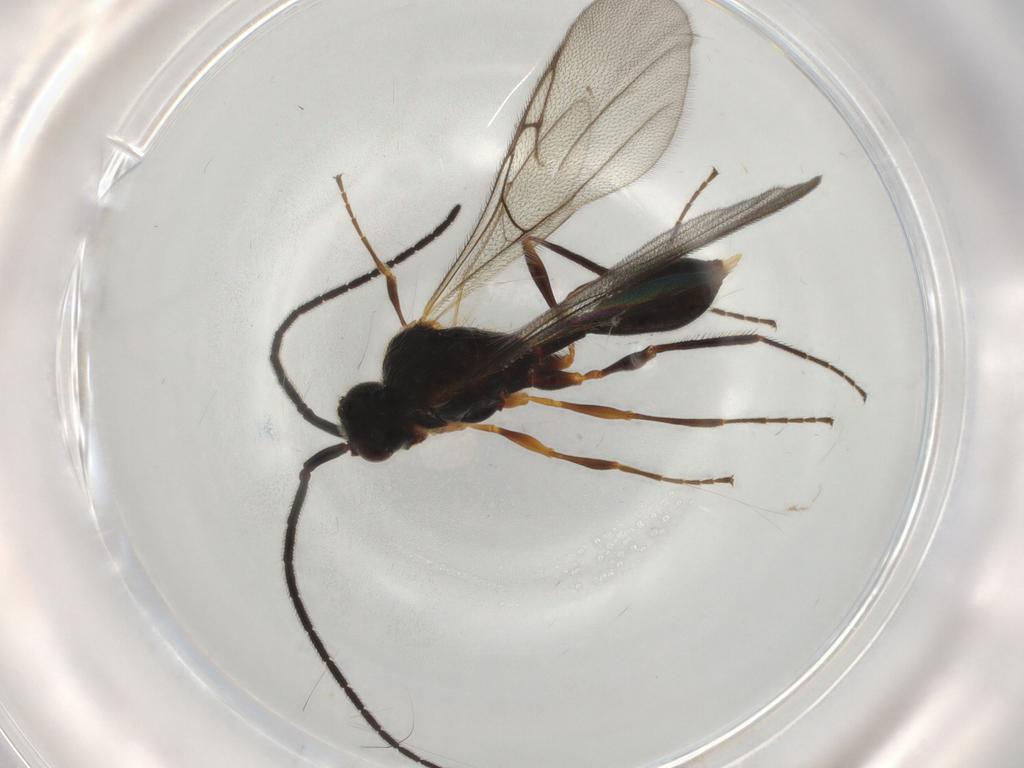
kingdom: Animalia
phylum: Arthropoda
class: Insecta
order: Hymenoptera
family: Diapriidae
